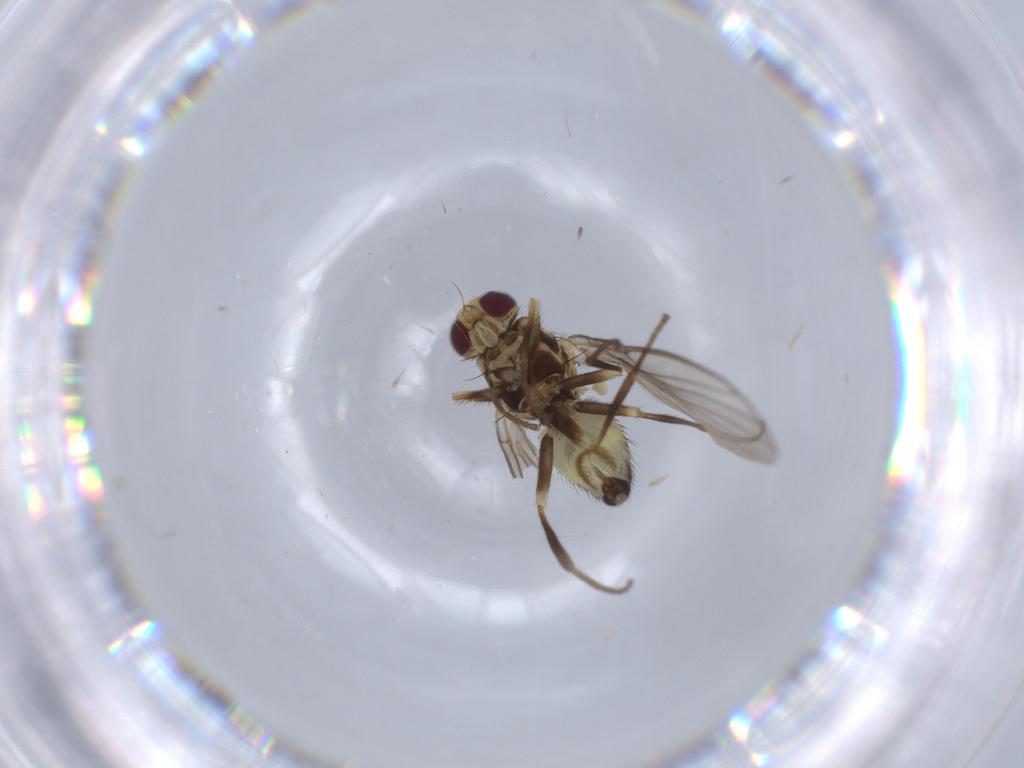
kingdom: Animalia
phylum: Arthropoda
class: Insecta
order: Diptera
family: Agromyzidae
